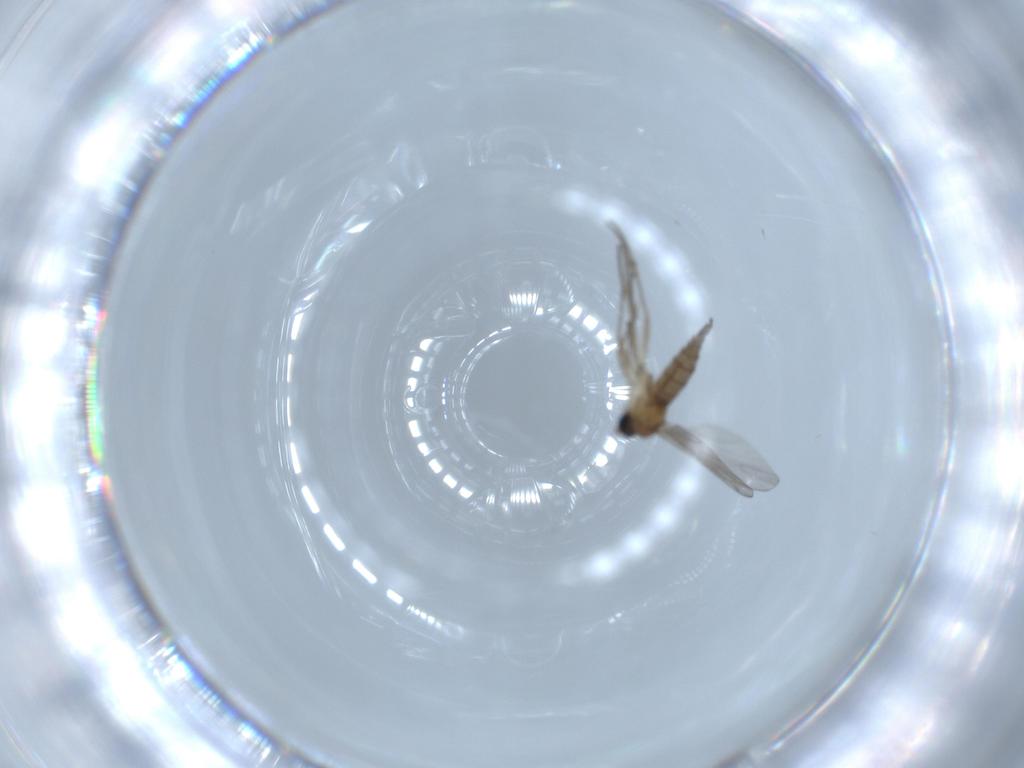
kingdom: Animalia
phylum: Arthropoda
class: Insecta
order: Diptera
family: Sciaridae
